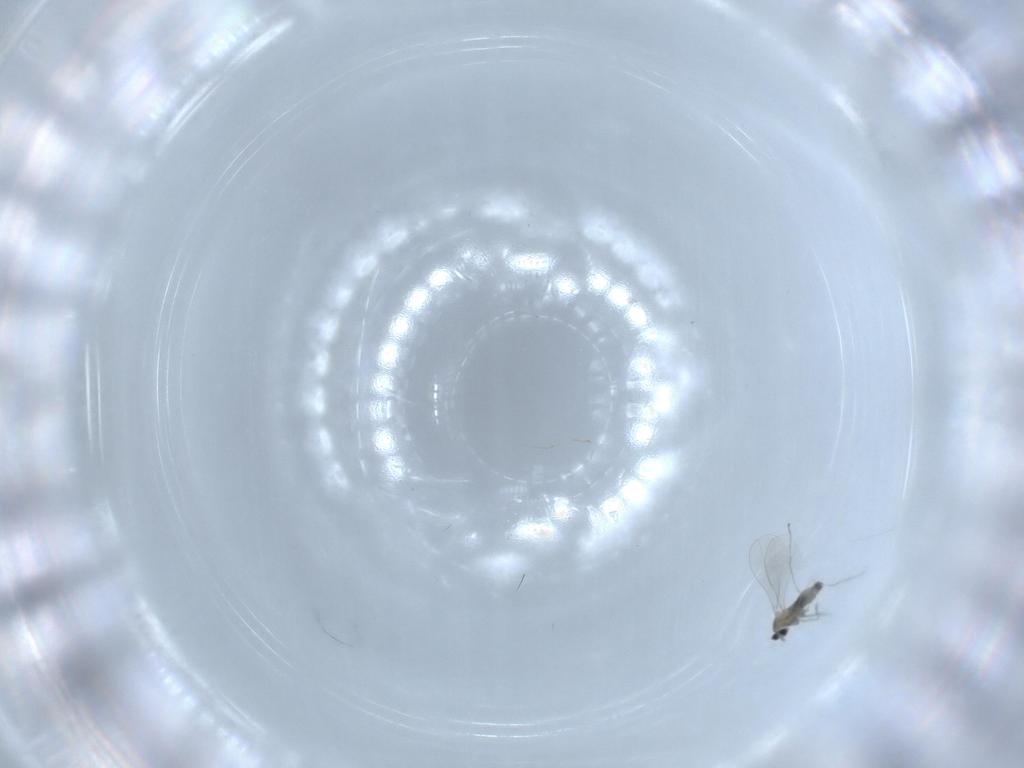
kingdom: Animalia
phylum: Arthropoda
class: Insecta
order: Diptera
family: Cecidomyiidae
